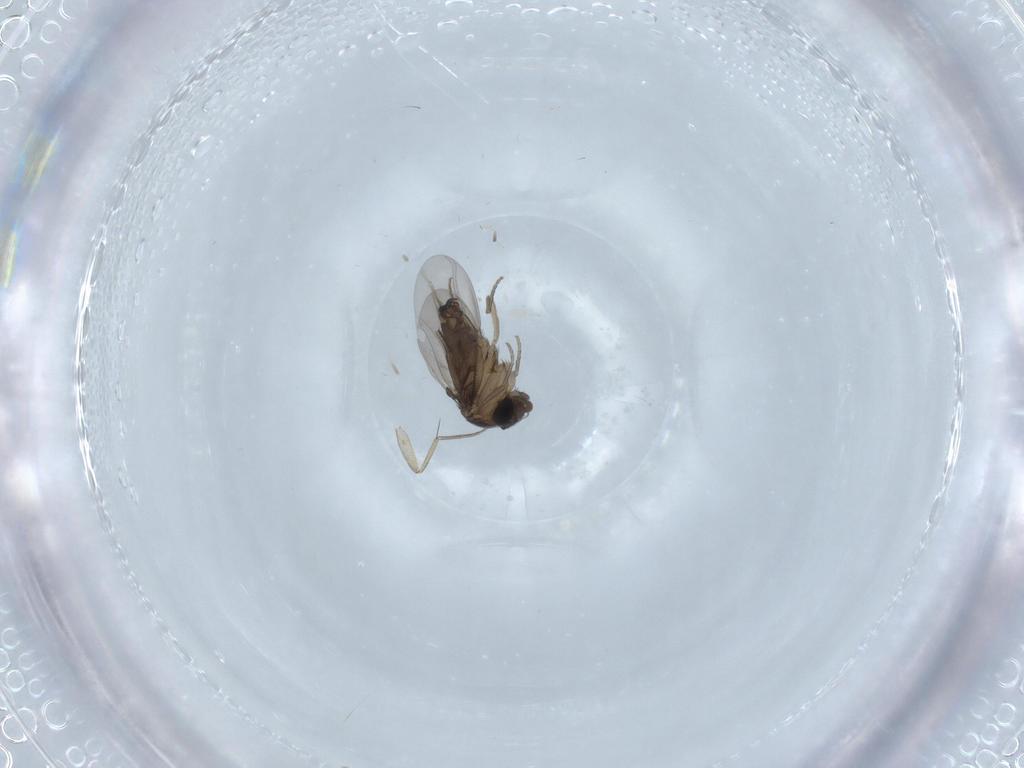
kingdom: Animalia
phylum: Arthropoda
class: Insecta
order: Diptera
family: Phoridae
